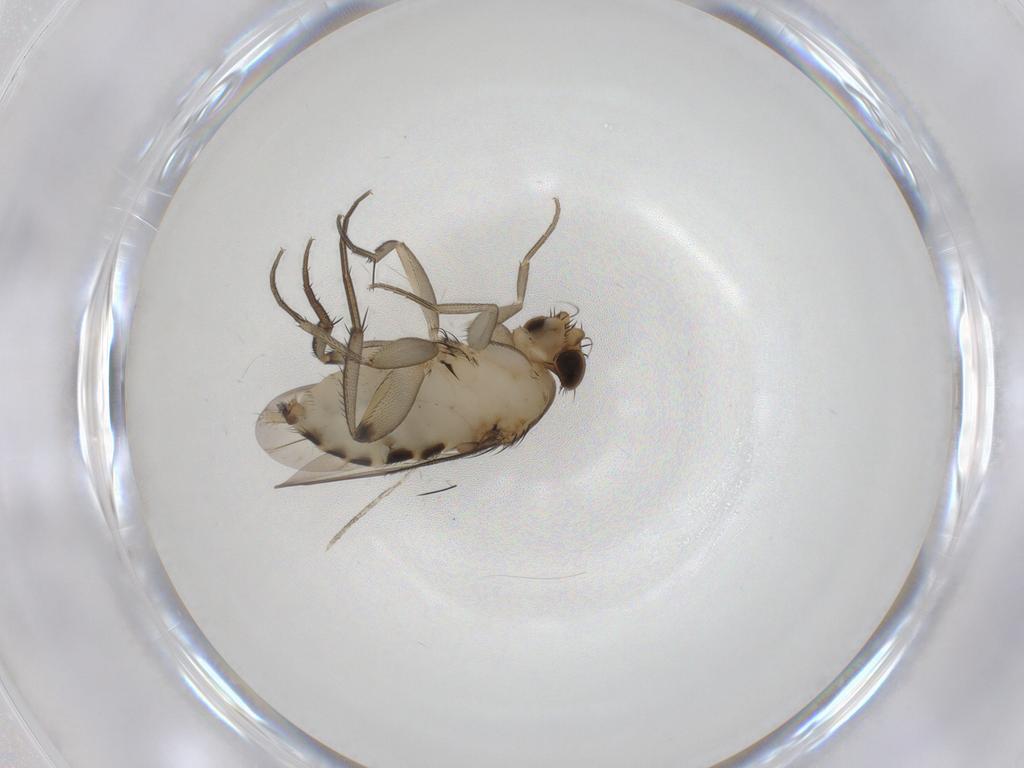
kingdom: Animalia
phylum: Arthropoda
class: Insecta
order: Diptera
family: Phoridae
